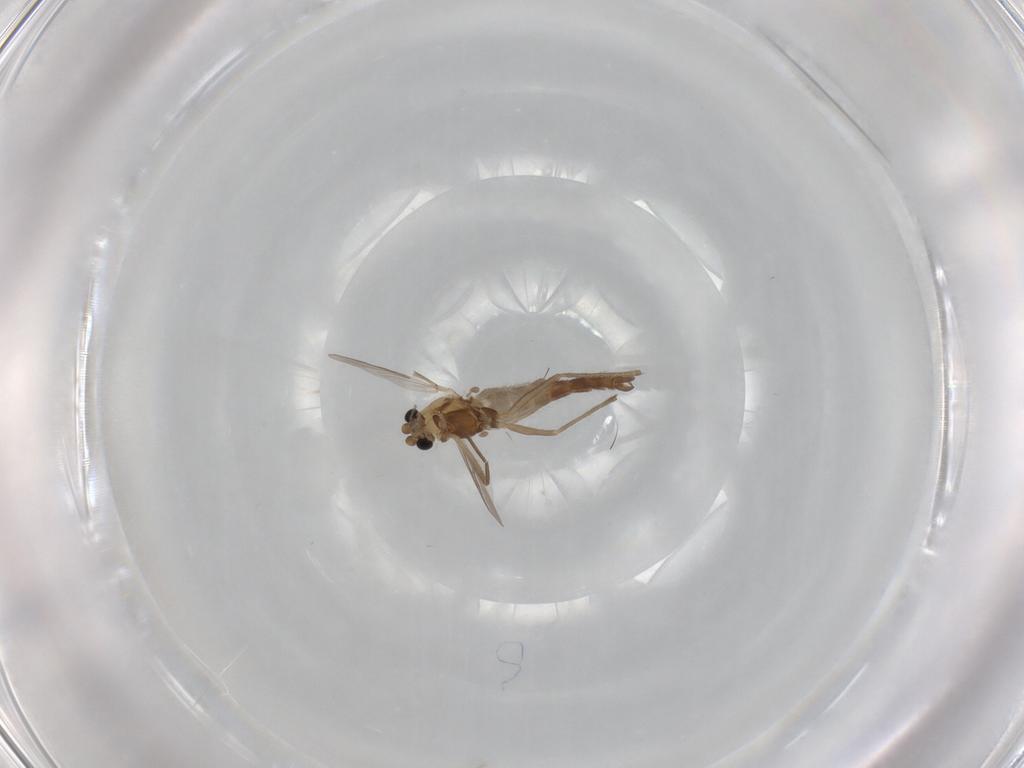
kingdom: Animalia
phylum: Arthropoda
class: Insecta
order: Diptera
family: Chironomidae
